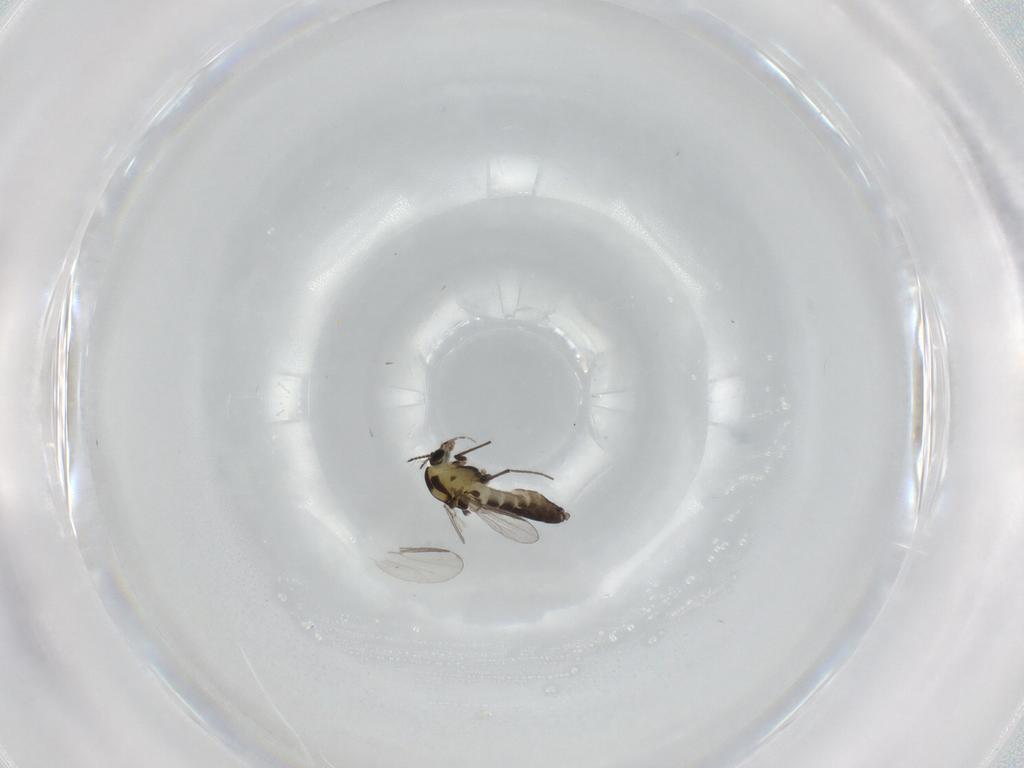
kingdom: Animalia
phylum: Arthropoda
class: Insecta
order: Diptera
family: Chironomidae
